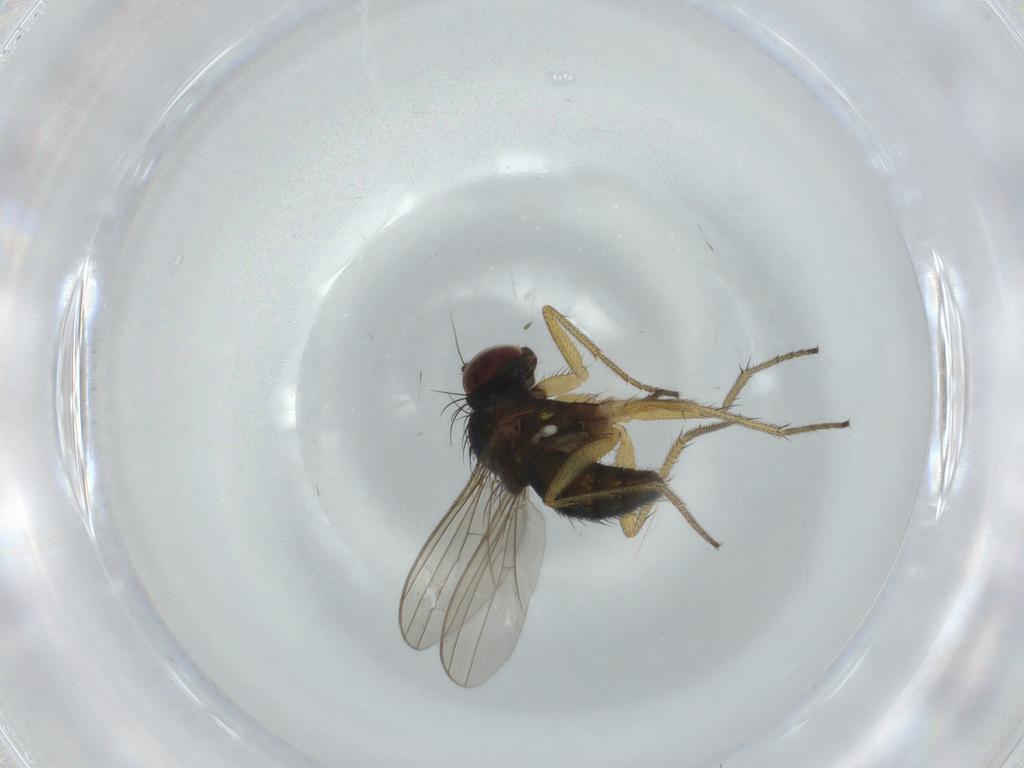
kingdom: Animalia
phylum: Arthropoda
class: Insecta
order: Diptera
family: Dolichopodidae
